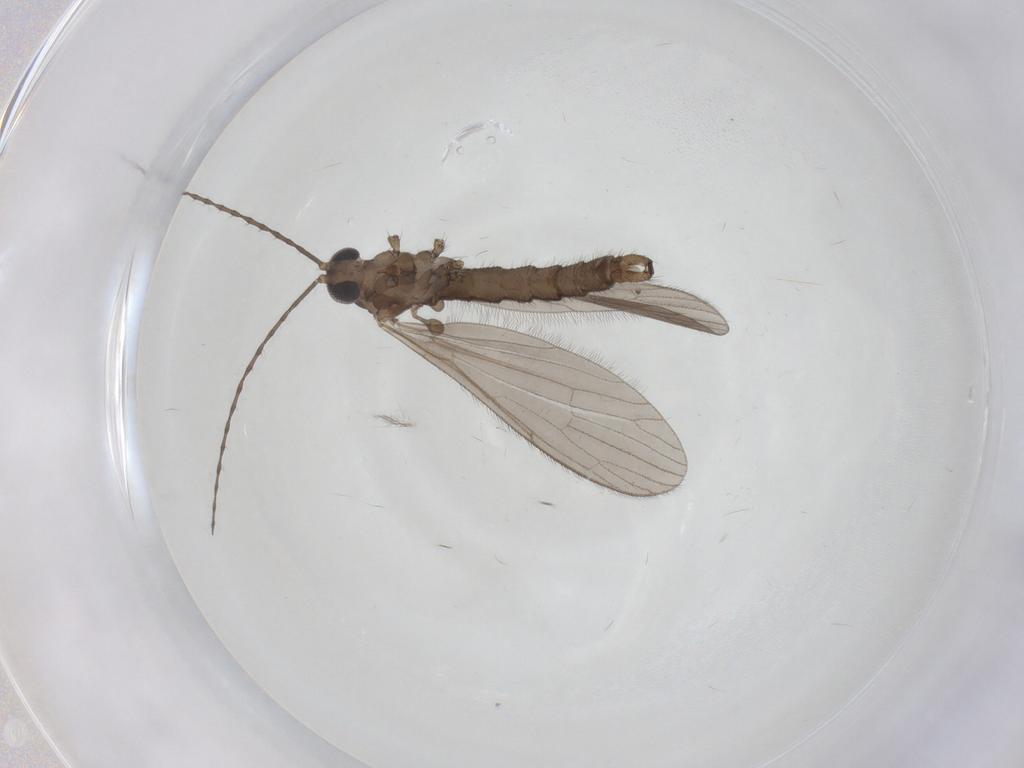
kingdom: Animalia
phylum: Arthropoda
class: Insecta
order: Diptera
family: Limoniidae
